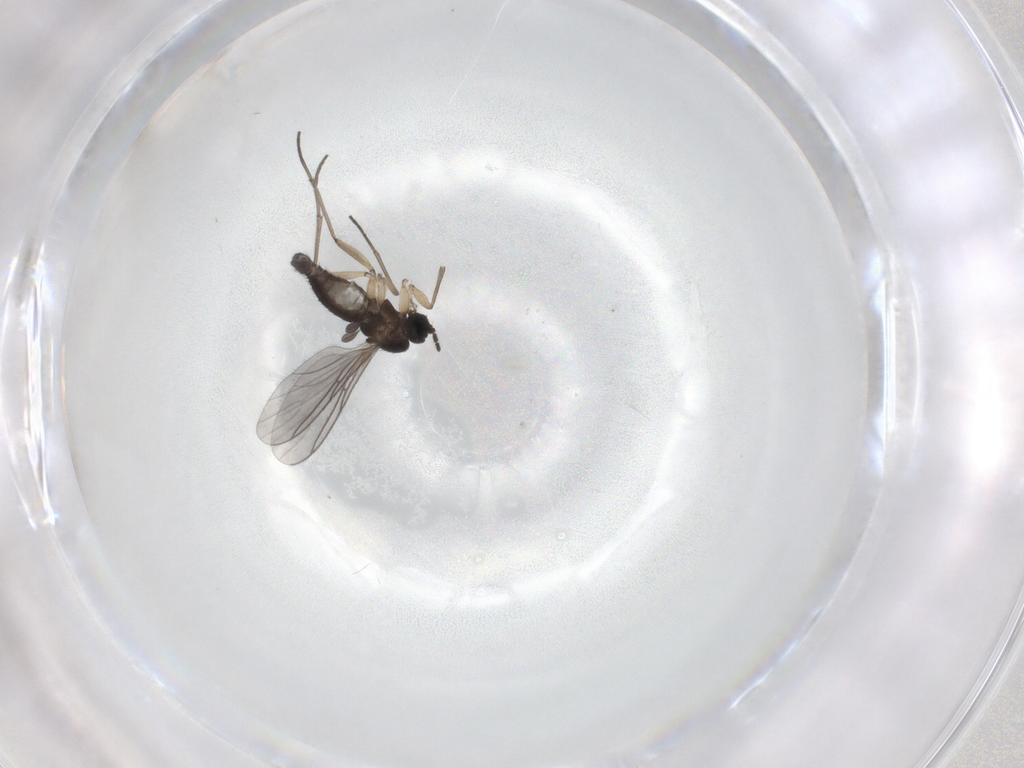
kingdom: Animalia
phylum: Arthropoda
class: Insecta
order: Diptera
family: Sciaridae
